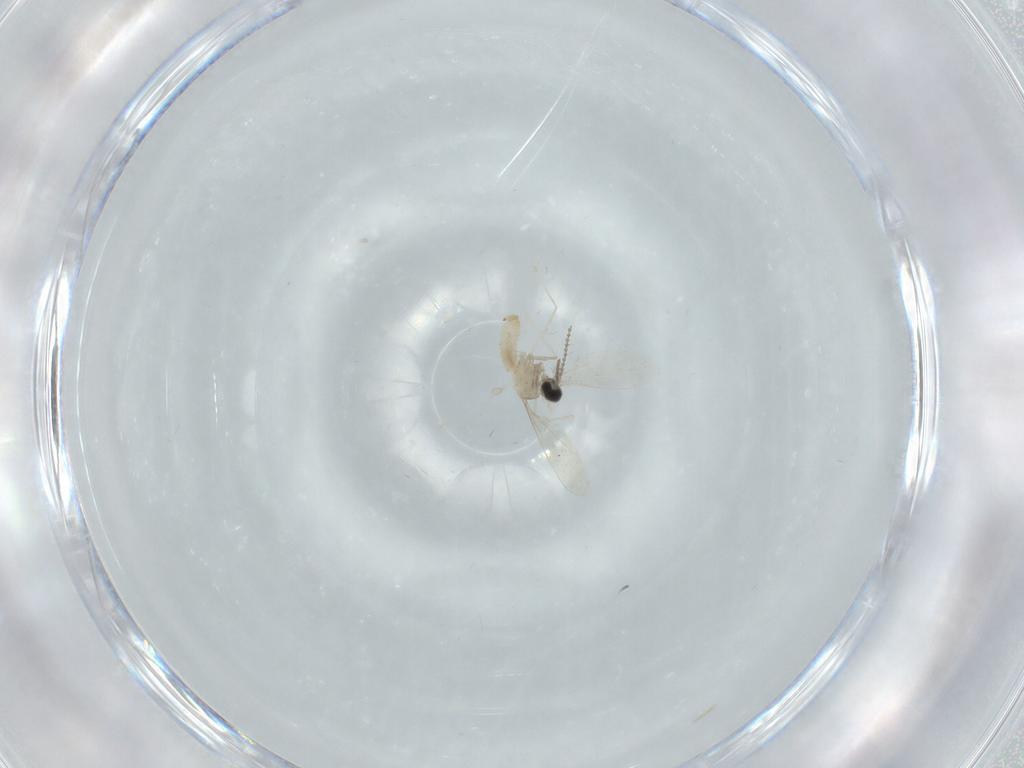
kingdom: Animalia
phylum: Arthropoda
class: Insecta
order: Diptera
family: Cecidomyiidae
